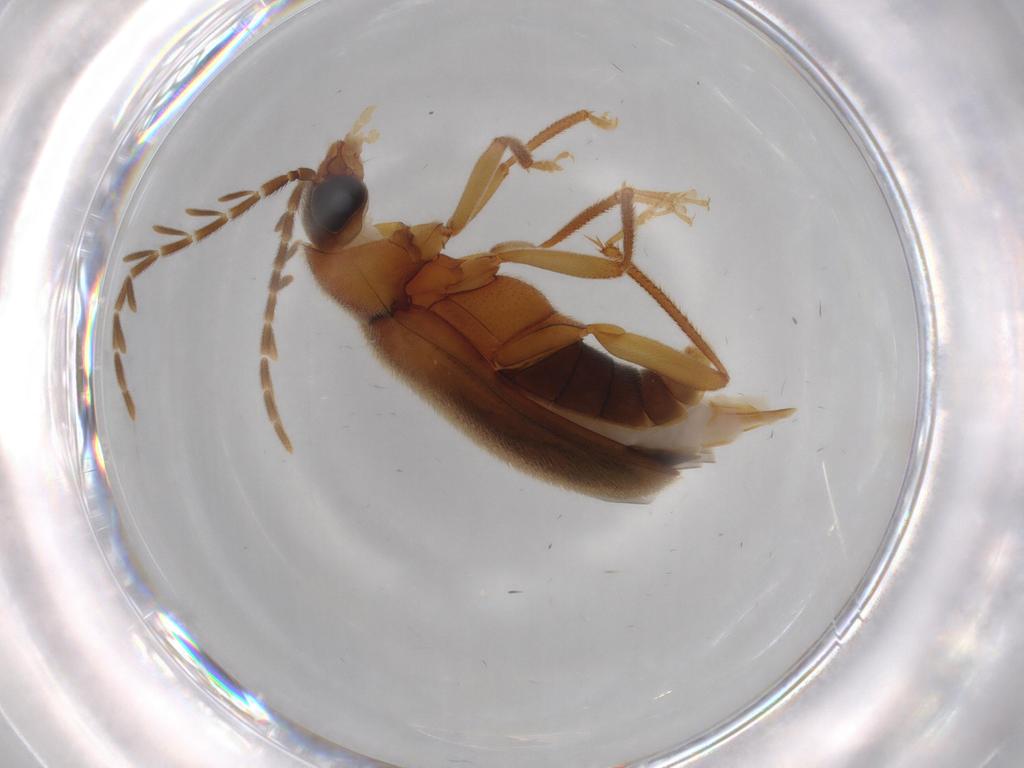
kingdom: Animalia
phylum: Arthropoda
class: Insecta
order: Coleoptera
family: Ptilodactylidae
